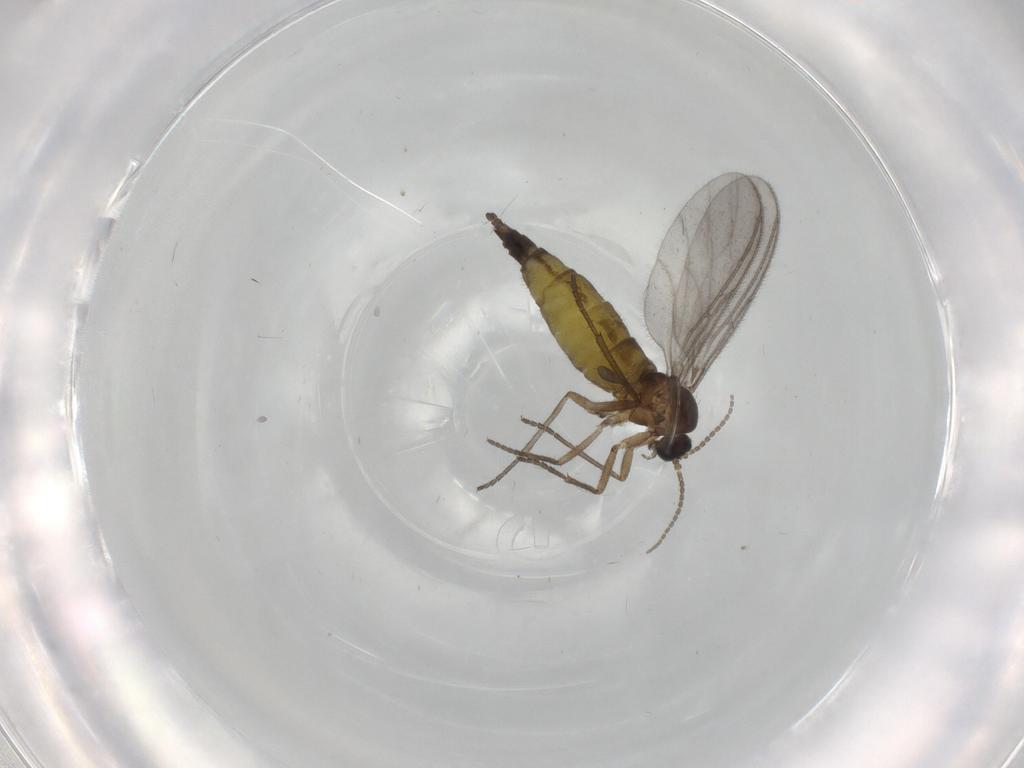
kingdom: Animalia
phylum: Arthropoda
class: Insecta
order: Diptera
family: Sciaridae
